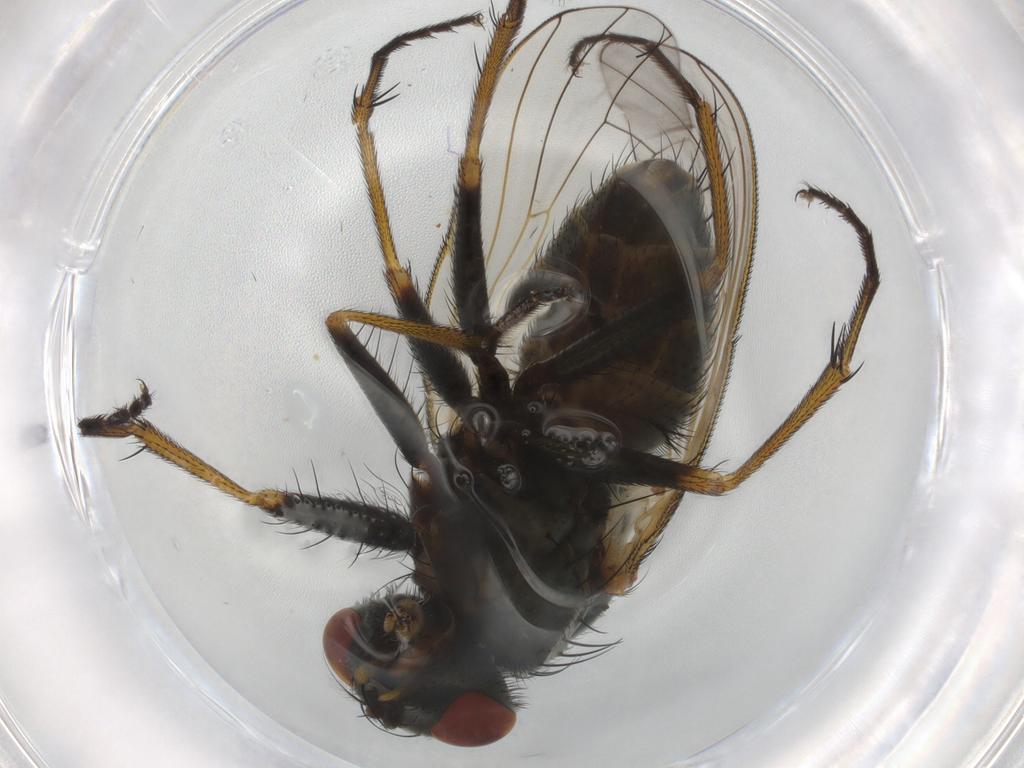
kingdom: Animalia
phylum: Arthropoda
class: Insecta
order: Diptera
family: Muscidae
